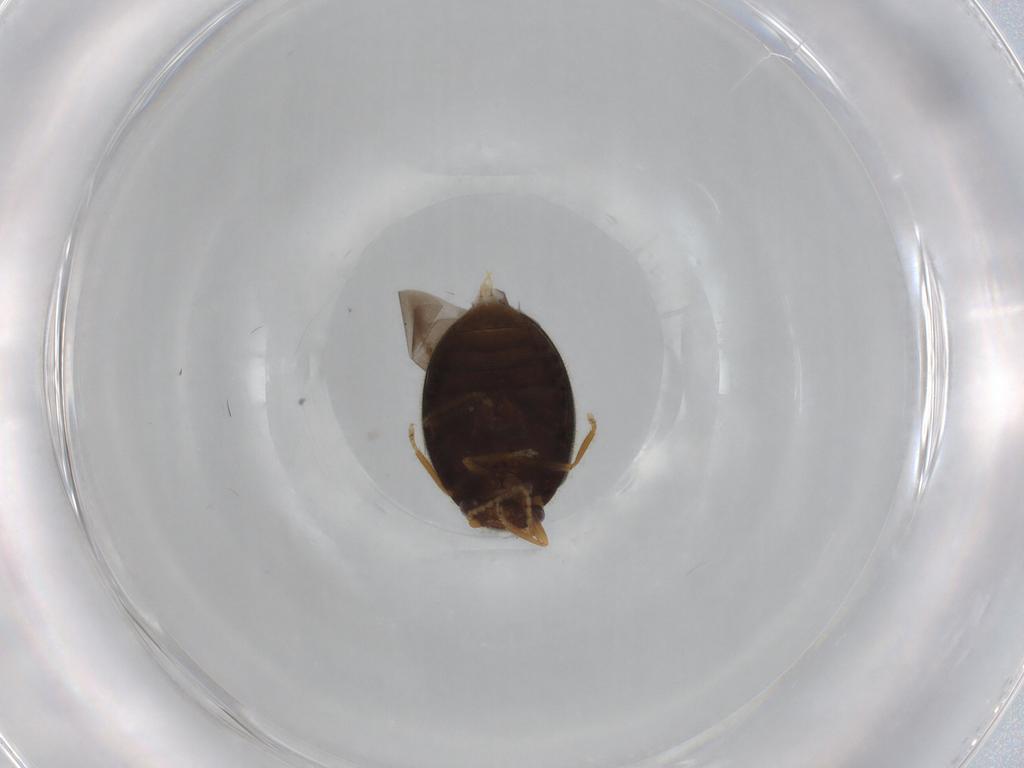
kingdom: Animalia
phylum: Arthropoda
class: Insecta
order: Coleoptera
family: Scirtidae
